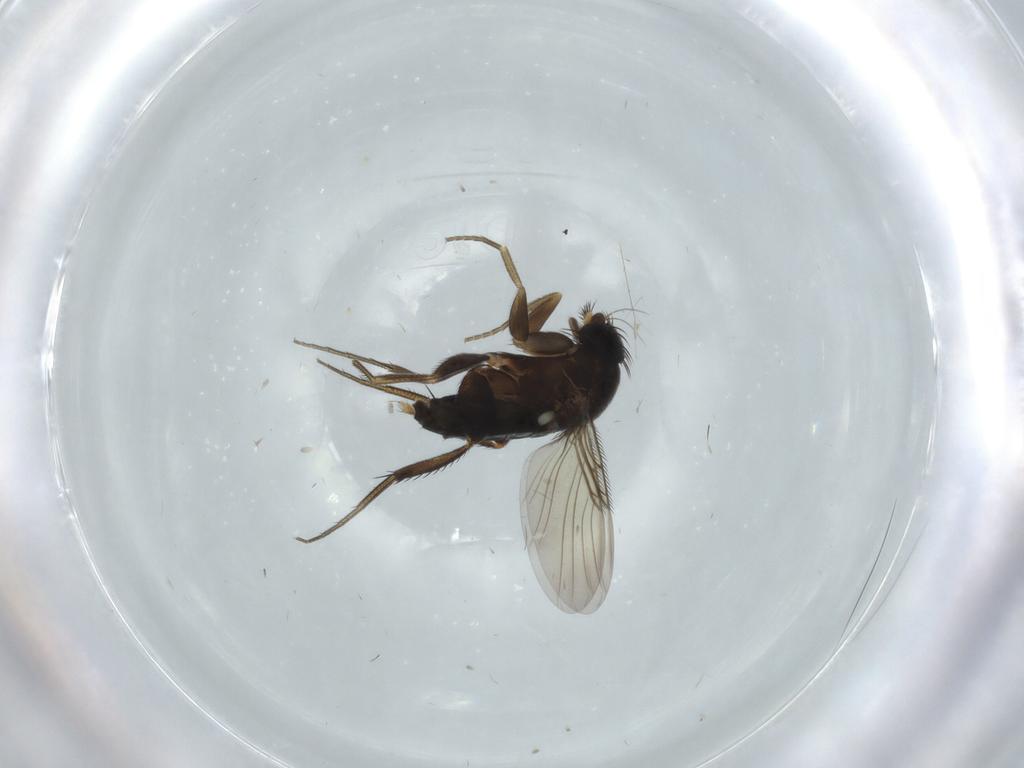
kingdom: Animalia
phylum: Arthropoda
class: Insecta
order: Diptera
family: Phoridae
